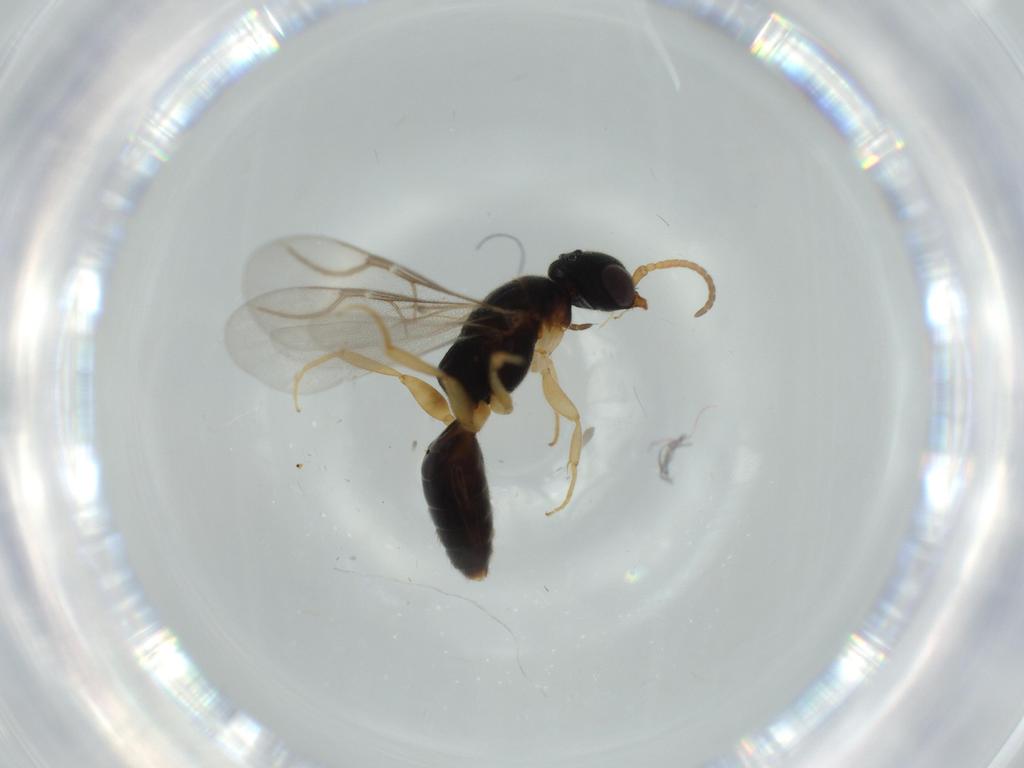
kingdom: Animalia
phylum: Arthropoda
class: Insecta
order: Hymenoptera
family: Bethylidae
